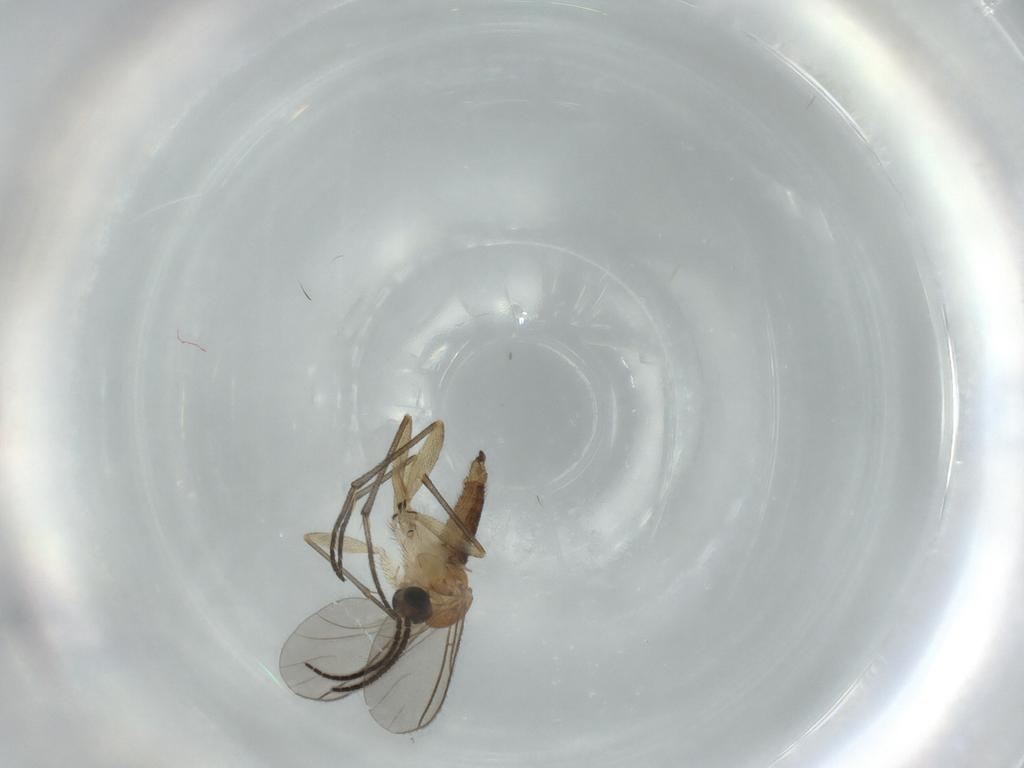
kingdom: Animalia
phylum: Arthropoda
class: Insecta
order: Diptera
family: Sciaridae
